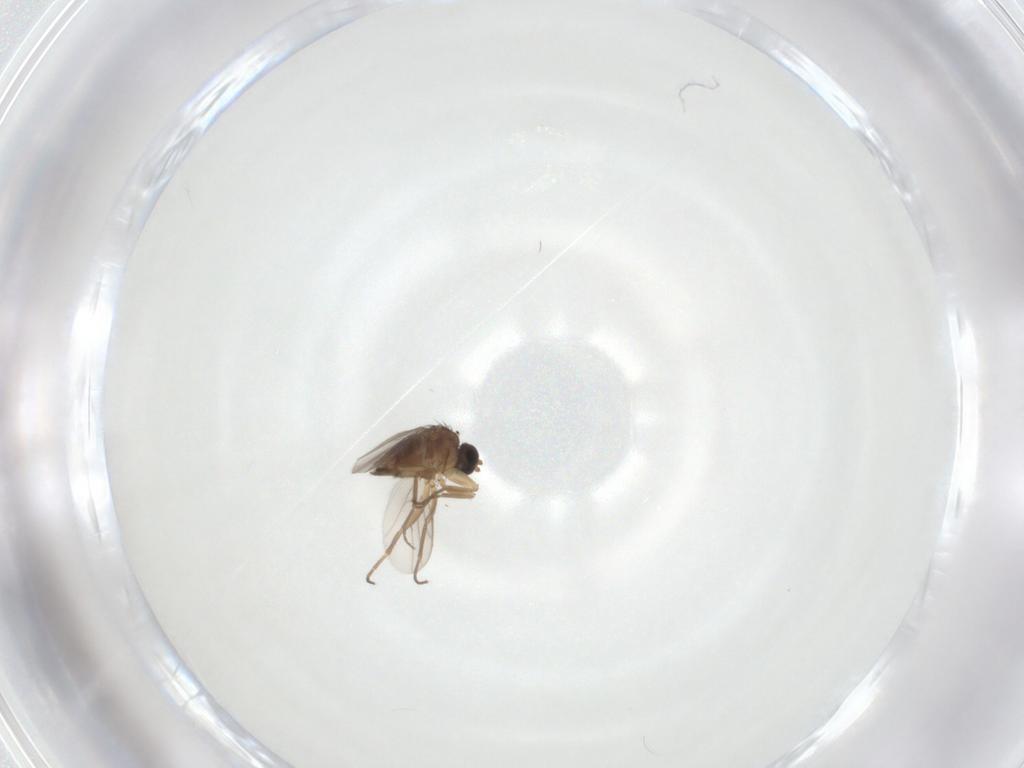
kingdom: Animalia
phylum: Arthropoda
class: Insecta
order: Diptera
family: Hybotidae
